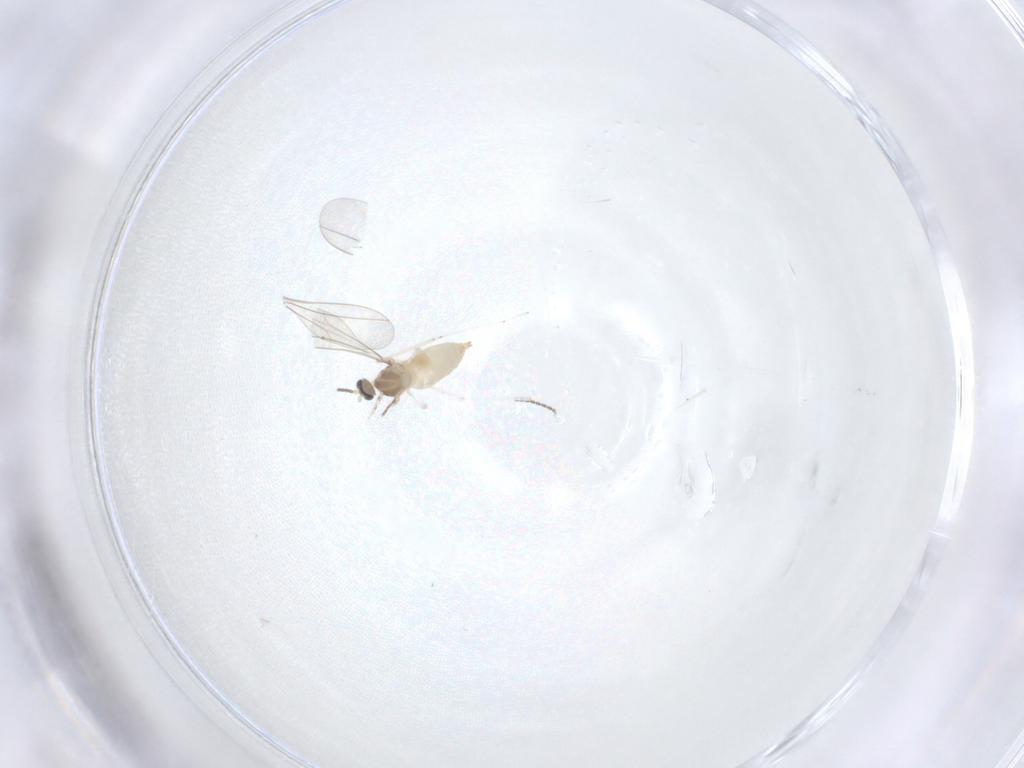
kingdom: Animalia
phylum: Arthropoda
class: Insecta
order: Diptera
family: Cecidomyiidae
